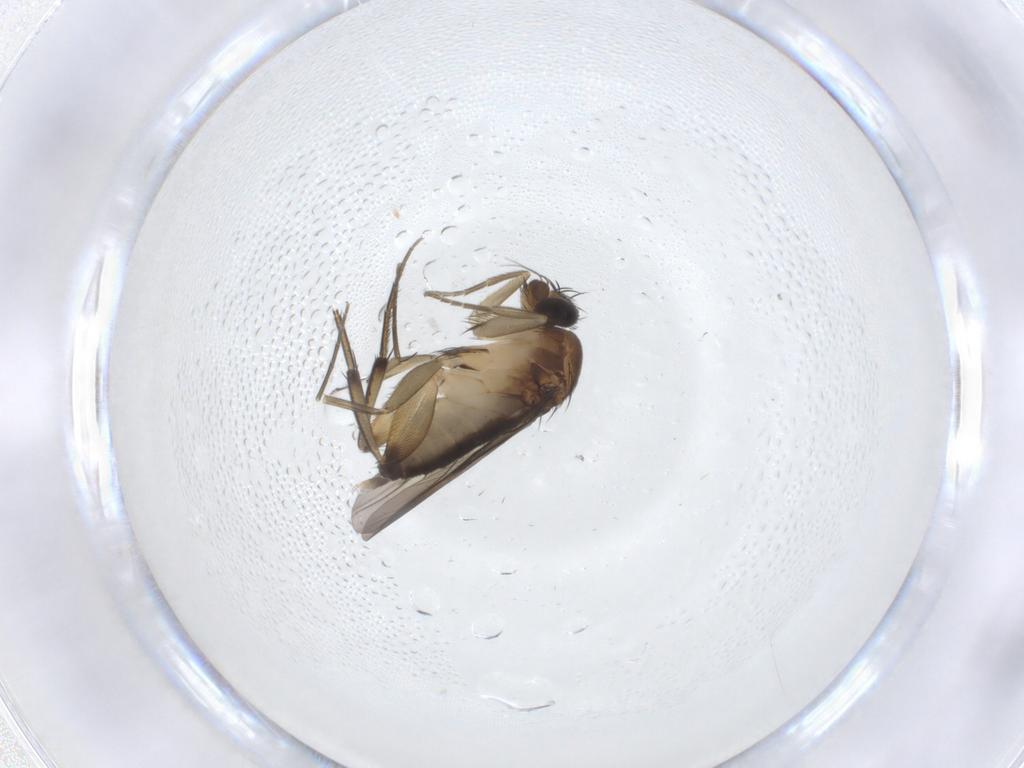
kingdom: Animalia
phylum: Arthropoda
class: Insecta
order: Diptera
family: Phoridae
